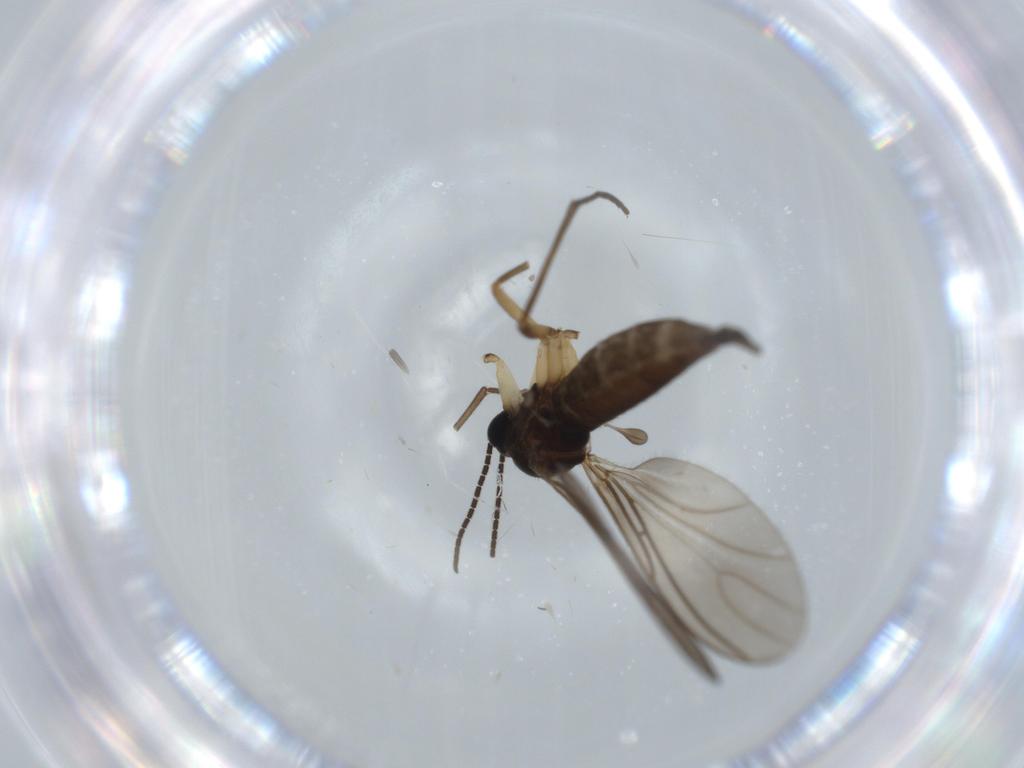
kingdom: Animalia
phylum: Arthropoda
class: Insecta
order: Diptera
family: Sciaridae
